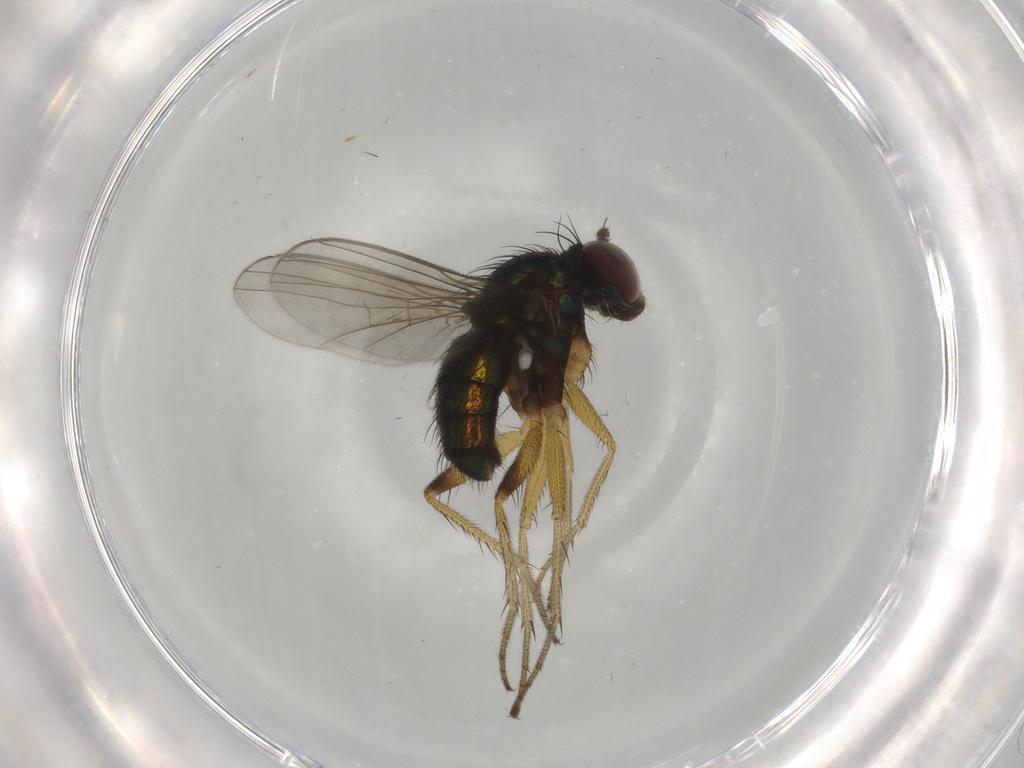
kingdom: Animalia
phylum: Arthropoda
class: Insecta
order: Diptera
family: Dolichopodidae
